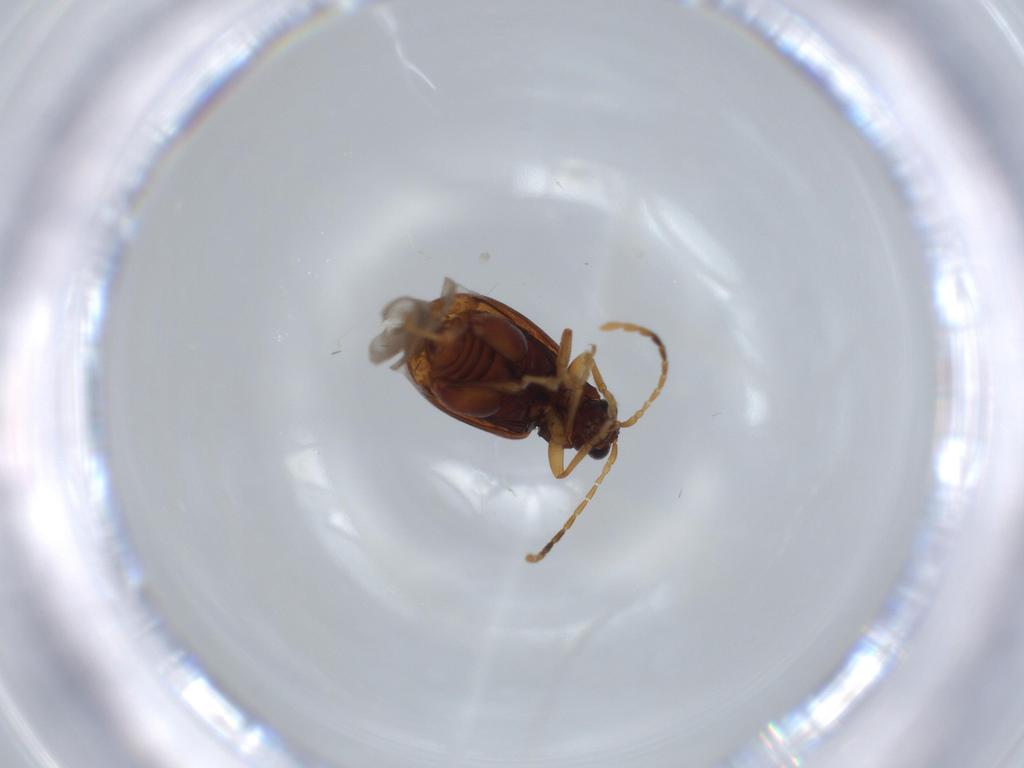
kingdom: Animalia
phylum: Arthropoda
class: Insecta
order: Coleoptera
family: Chrysomelidae
